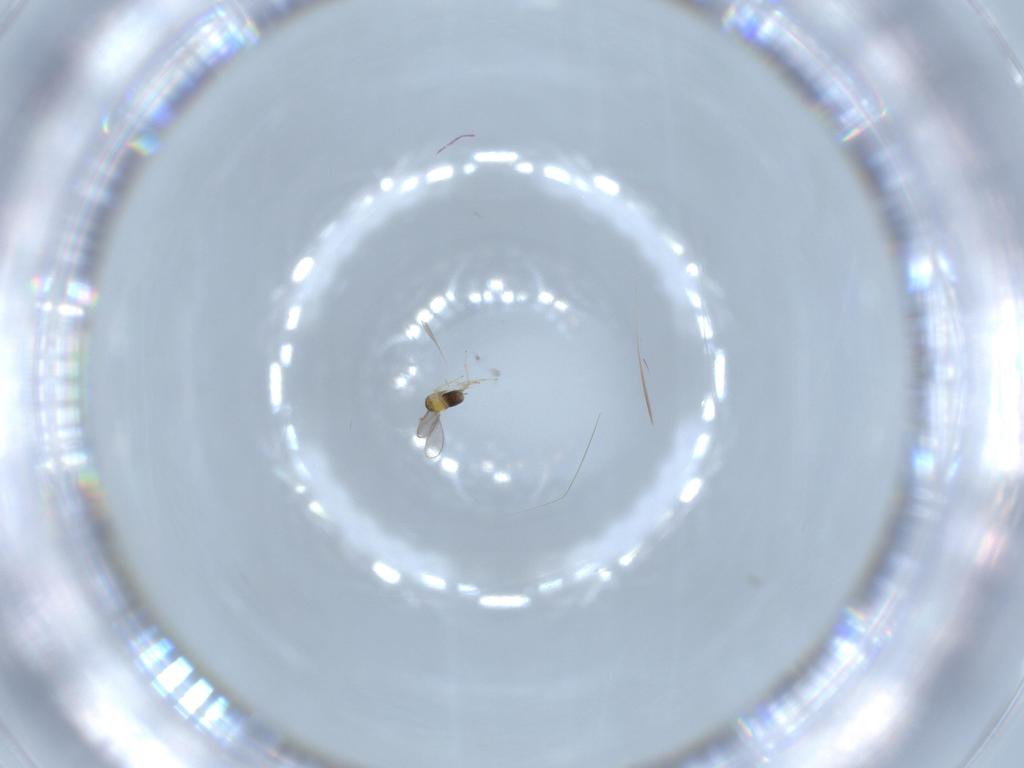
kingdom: Animalia
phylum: Arthropoda
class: Insecta
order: Hymenoptera
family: Aphelinidae
